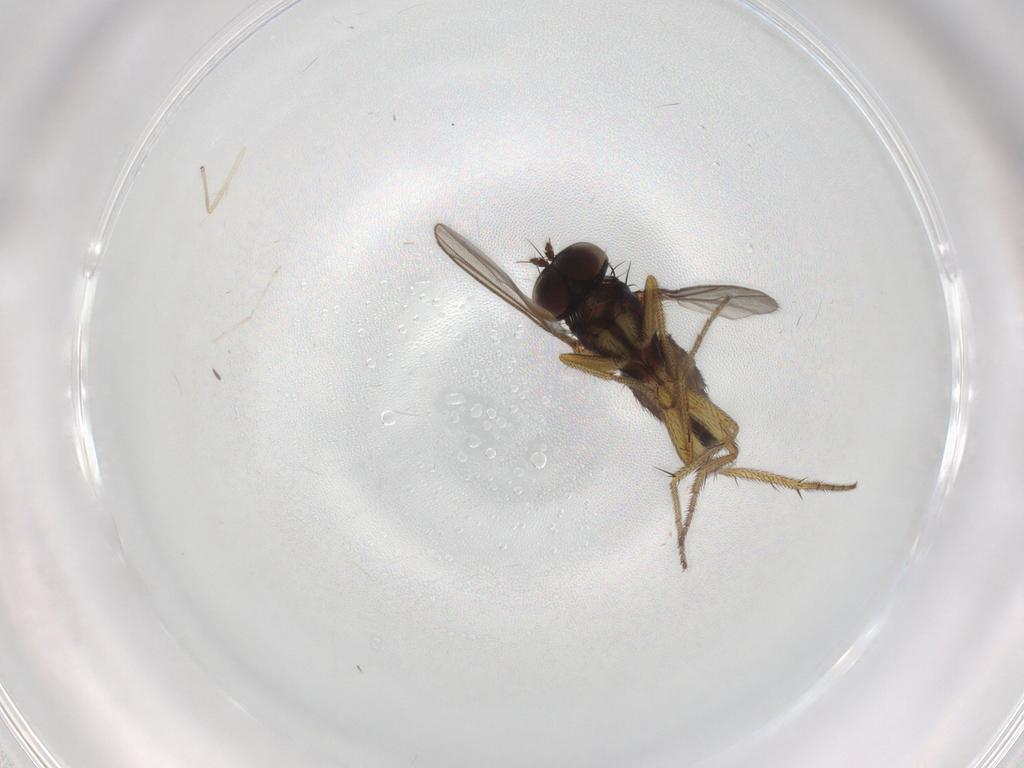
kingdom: Animalia
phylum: Arthropoda
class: Insecta
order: Diptera
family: Dolichopodidae
